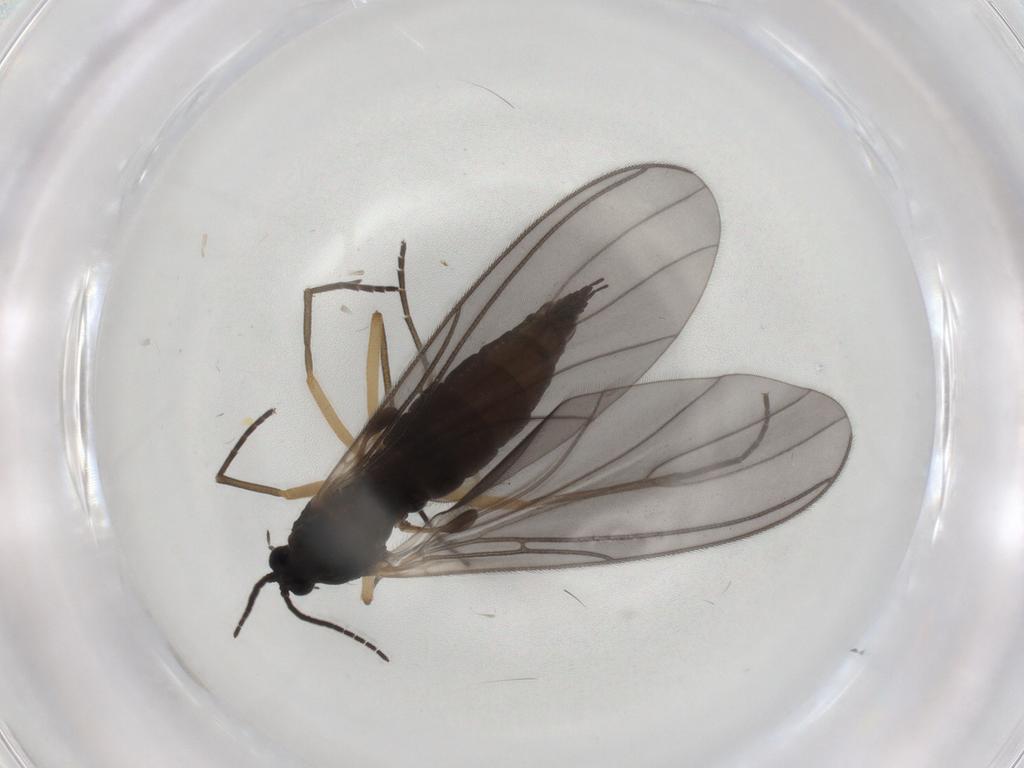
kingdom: Animalia
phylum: Arthropoda
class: Insecta
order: Diptera
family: Sciaridae
